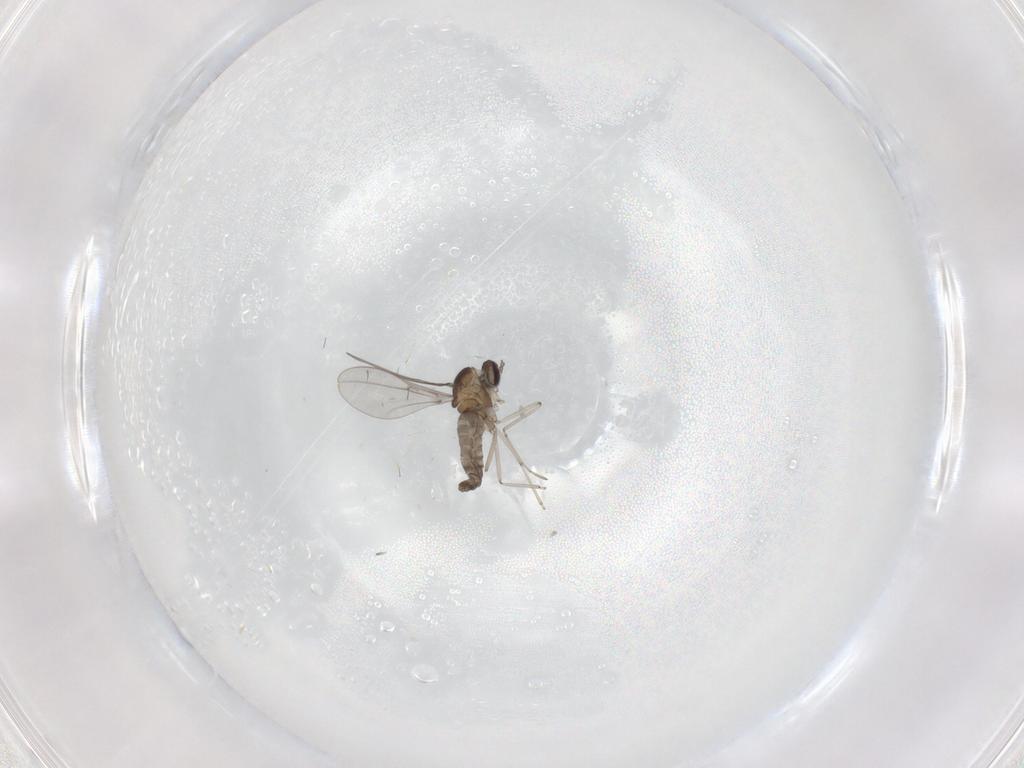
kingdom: Animalia
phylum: Arthropoda
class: Insecta
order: Diptera
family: Cecidomyiidae
